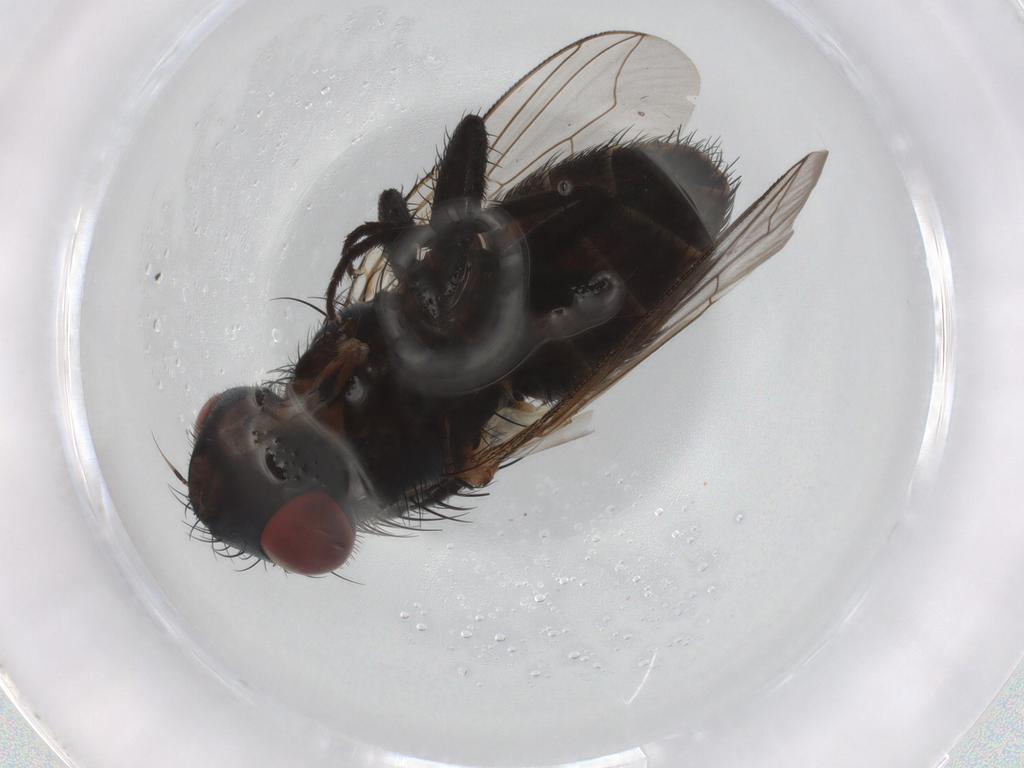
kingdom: Animalia
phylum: Arthropoda
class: Insecta
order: Diptera
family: Sarcophagidae
